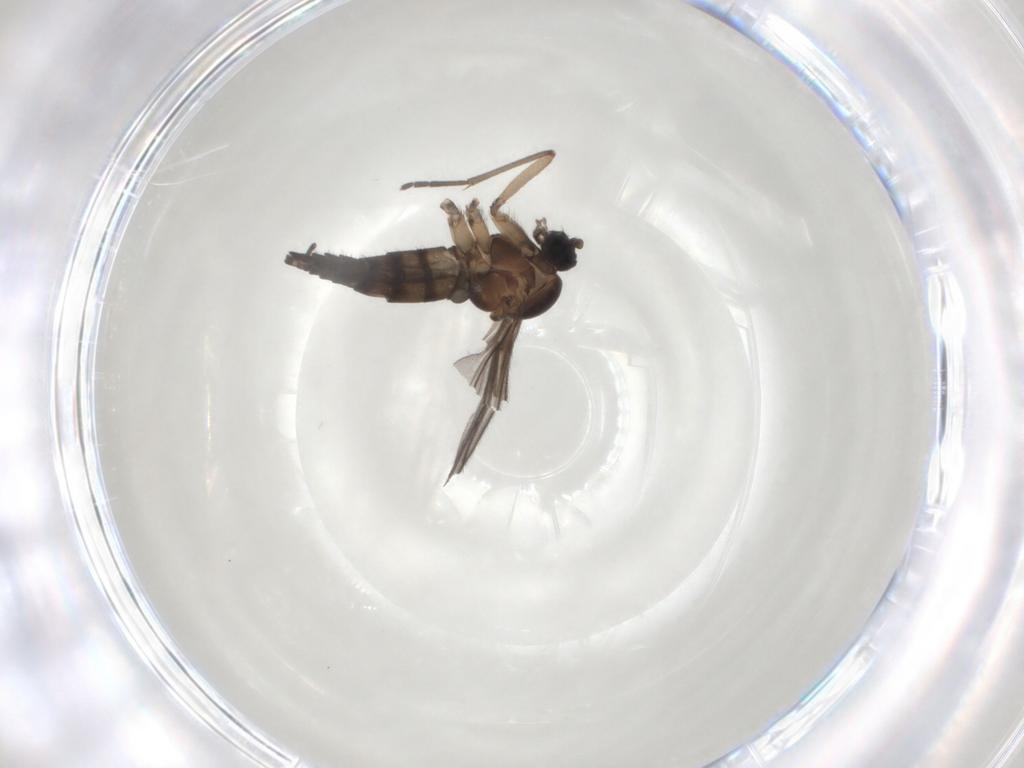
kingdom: Animalia
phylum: Arthropoda
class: Insecta
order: Diptera
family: Sciaridae
